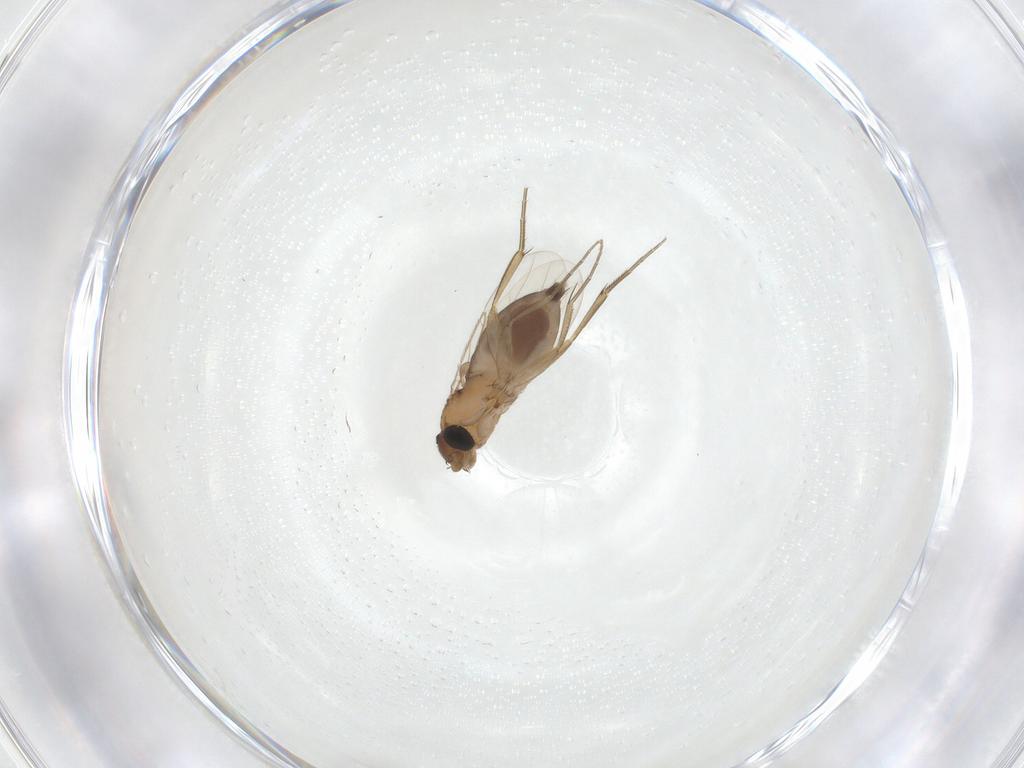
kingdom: Animalia
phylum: Arthropoda
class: Insecta
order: Diptera
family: Phoridae
